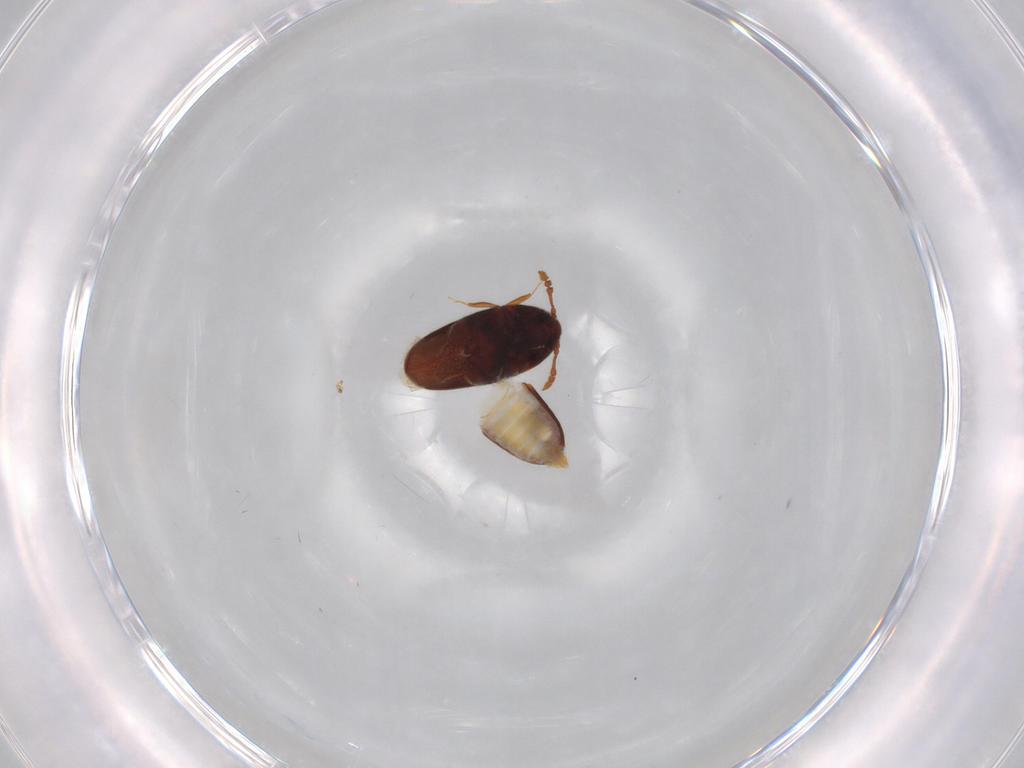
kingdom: Animalia
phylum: Arthropoda
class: Insecta
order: Coleoptera
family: Throscidae
